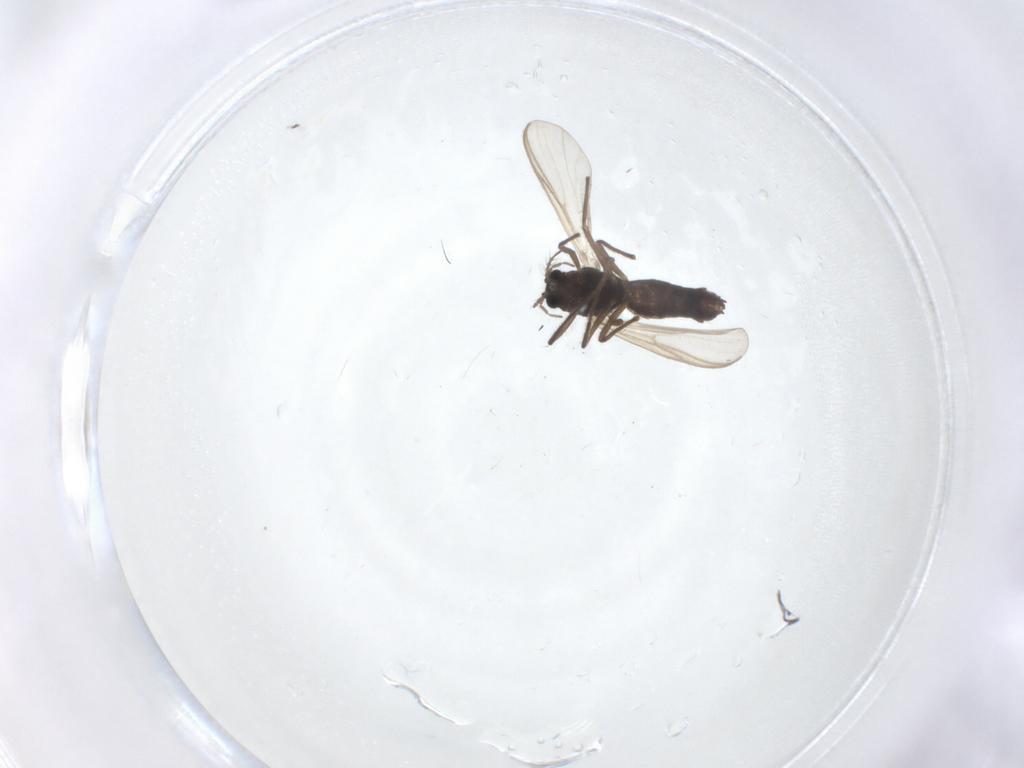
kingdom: Animalia
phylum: Arthropoda
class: Insecta
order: Diptera
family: Chironomidae
